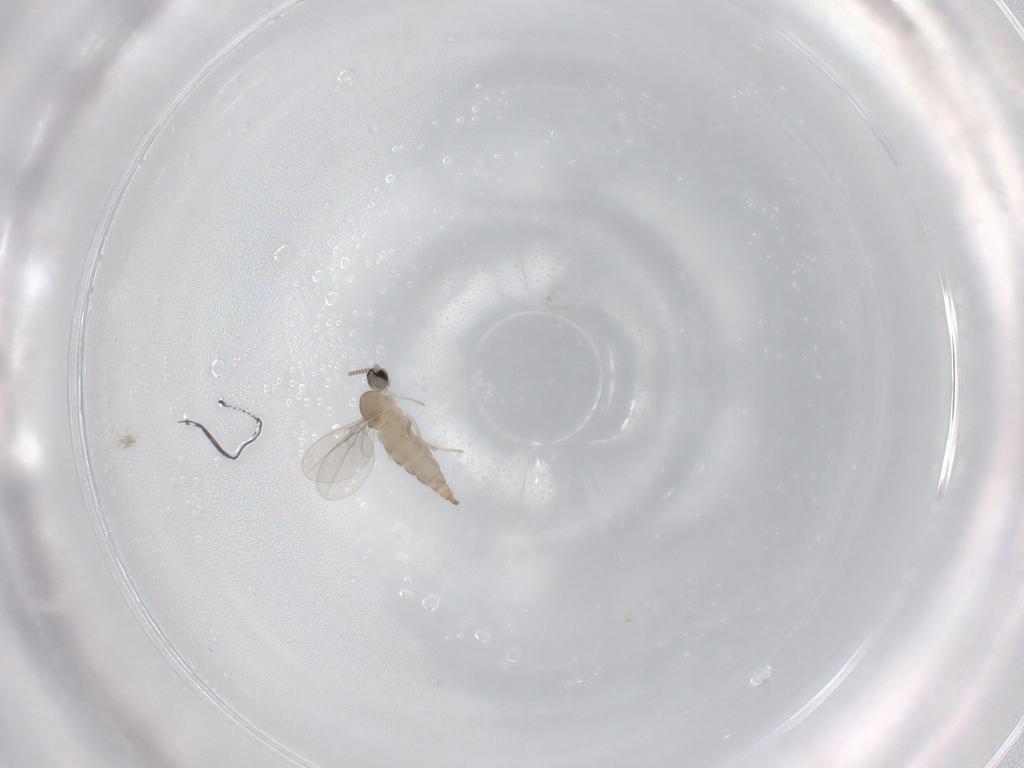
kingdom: Animalia
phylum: Arthropoda
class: Insecta
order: Diptera
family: Cecidomyiidae
